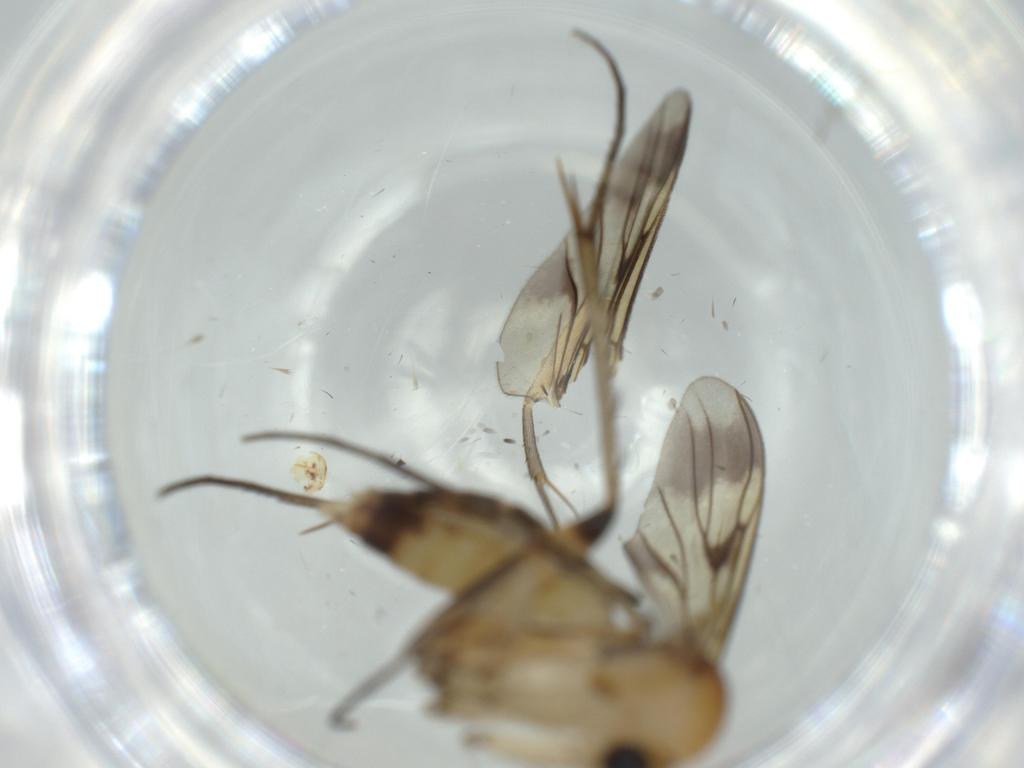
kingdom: Animalia
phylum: Arthropoda
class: Insecta
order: Diptera
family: Mycetophilidae
